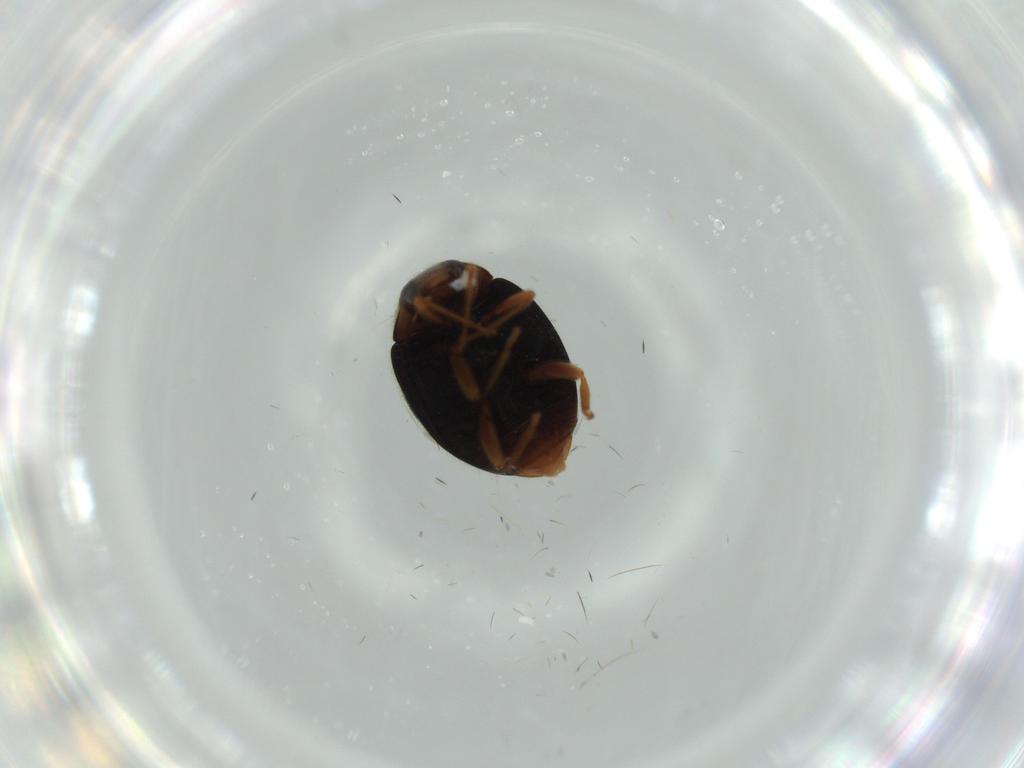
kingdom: Animalia
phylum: Arthropoda
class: Insecta
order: Coleoptera
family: Coccinellidae
